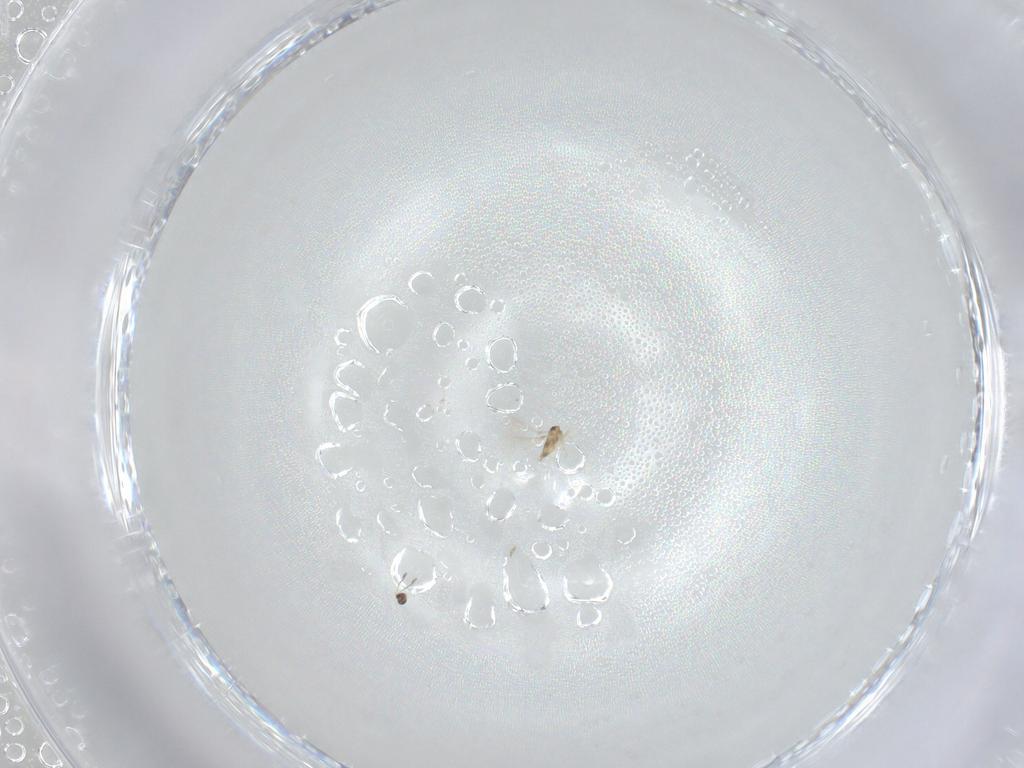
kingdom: Animalia
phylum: Arthropoda
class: Insecta
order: Hymenoptera
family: Mymaridae
